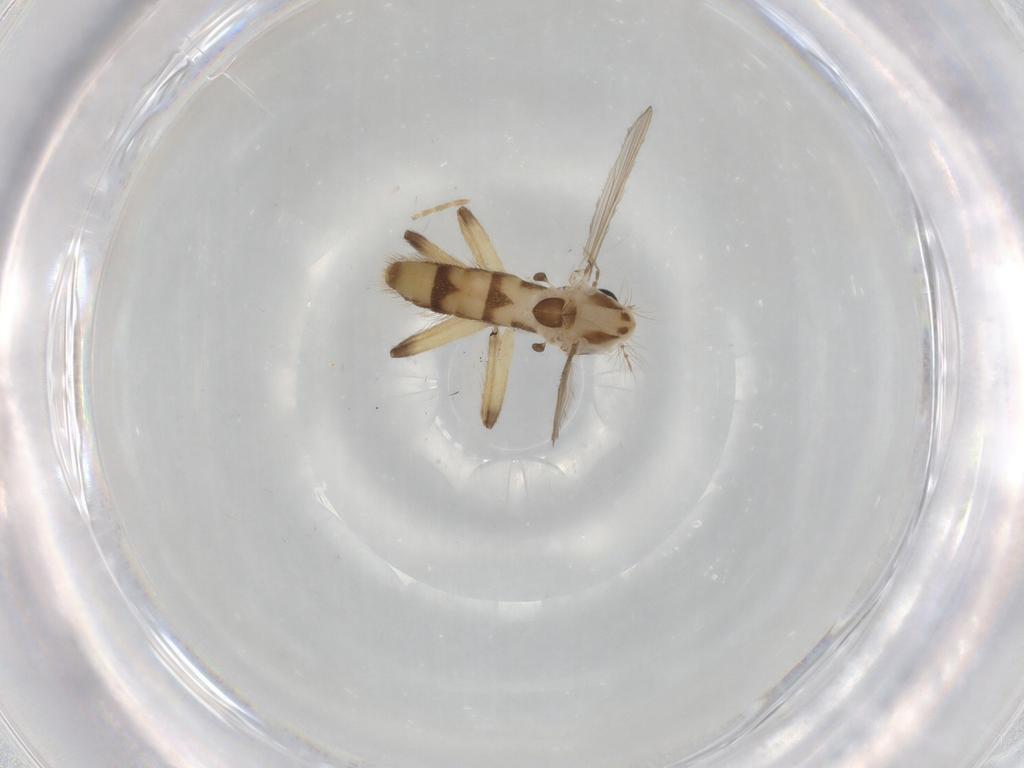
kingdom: Animalia
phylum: Arthropoda
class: Insecta
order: Diptera
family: Chironomidae
